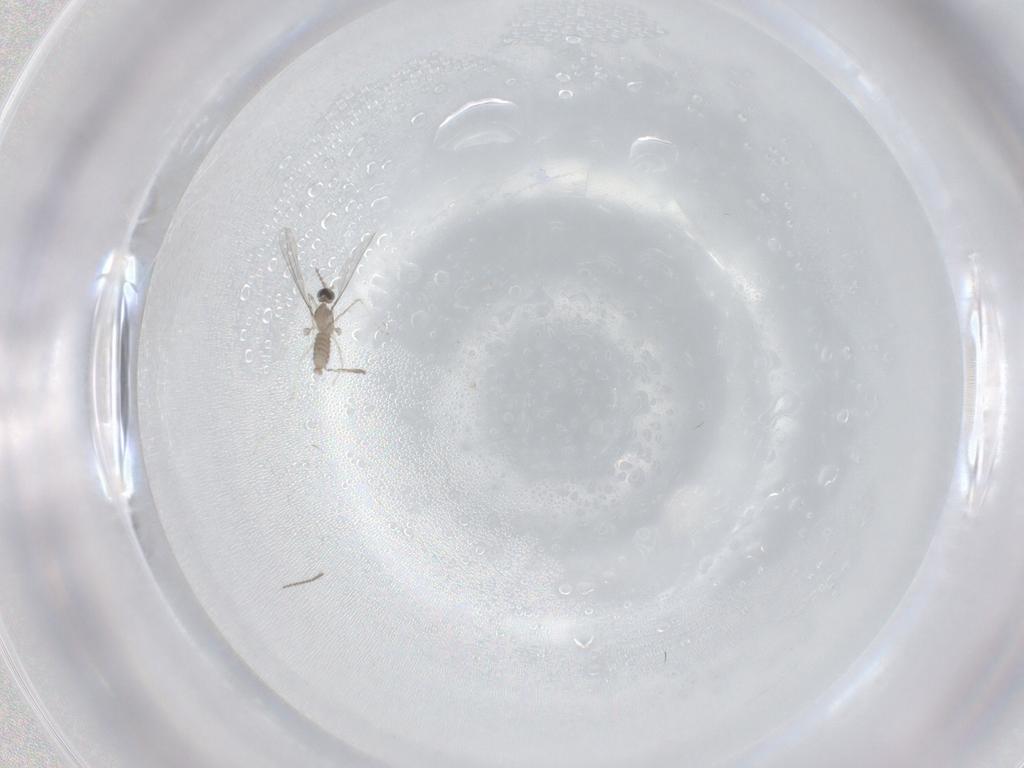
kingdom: Animalia
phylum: Arthropoda
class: Insecta
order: Diptera
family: Cecidomyiidae
